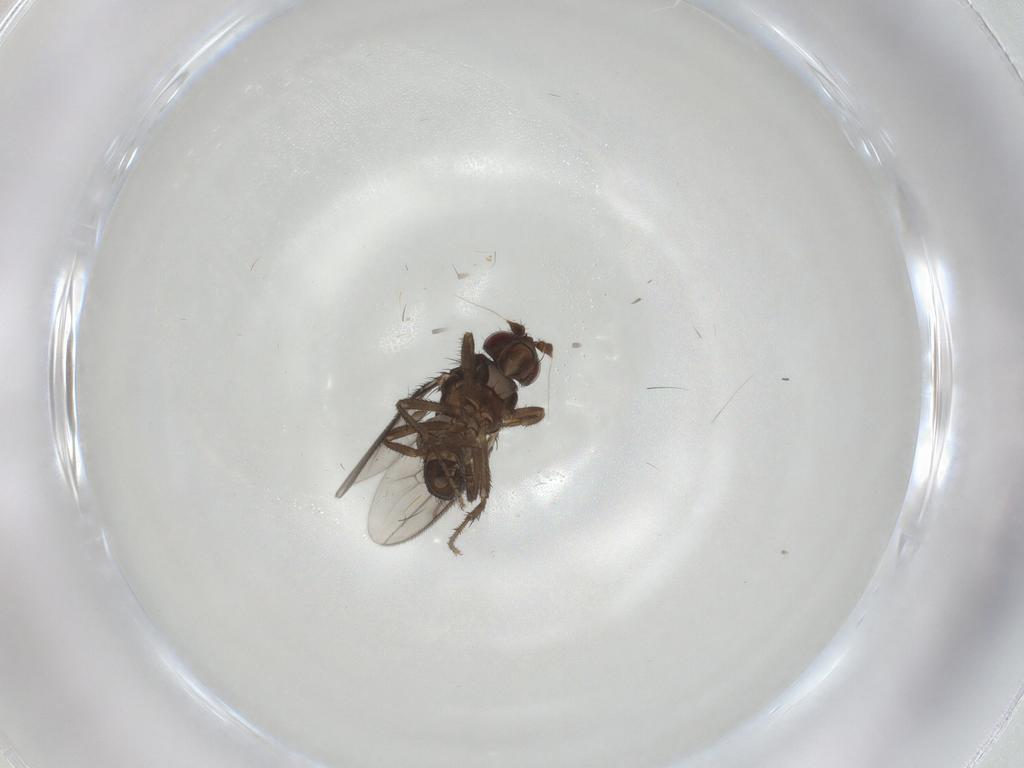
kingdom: Animalia
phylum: Arthropoda
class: Insecta
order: Diptera
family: Sphaeroceridae
